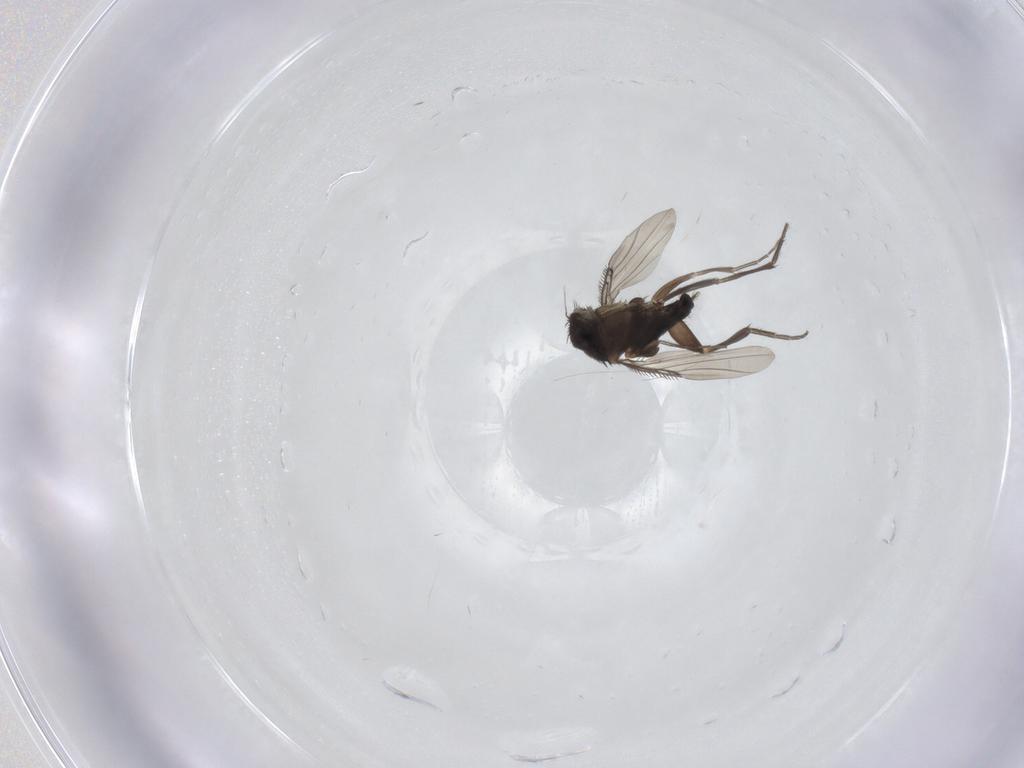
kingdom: Animalia
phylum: Arthropoda
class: Insecta
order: Diptera
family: Phoridae
